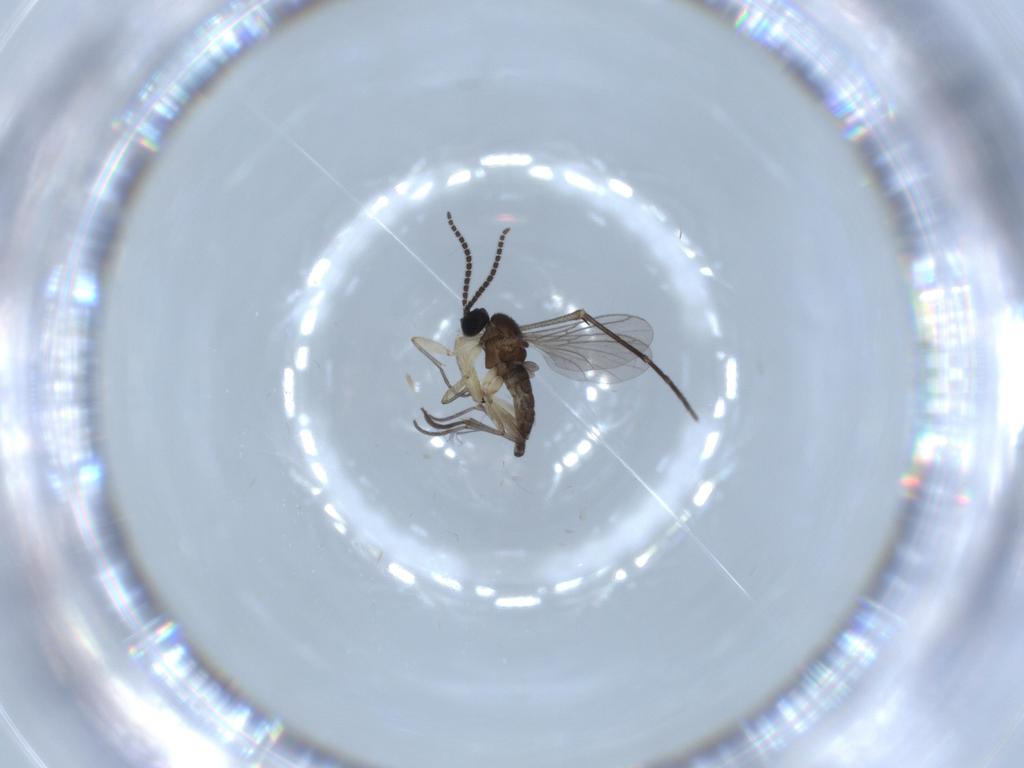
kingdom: Animalia
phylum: Arthropoda
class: Insecta
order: Diptera
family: Sciaridae
